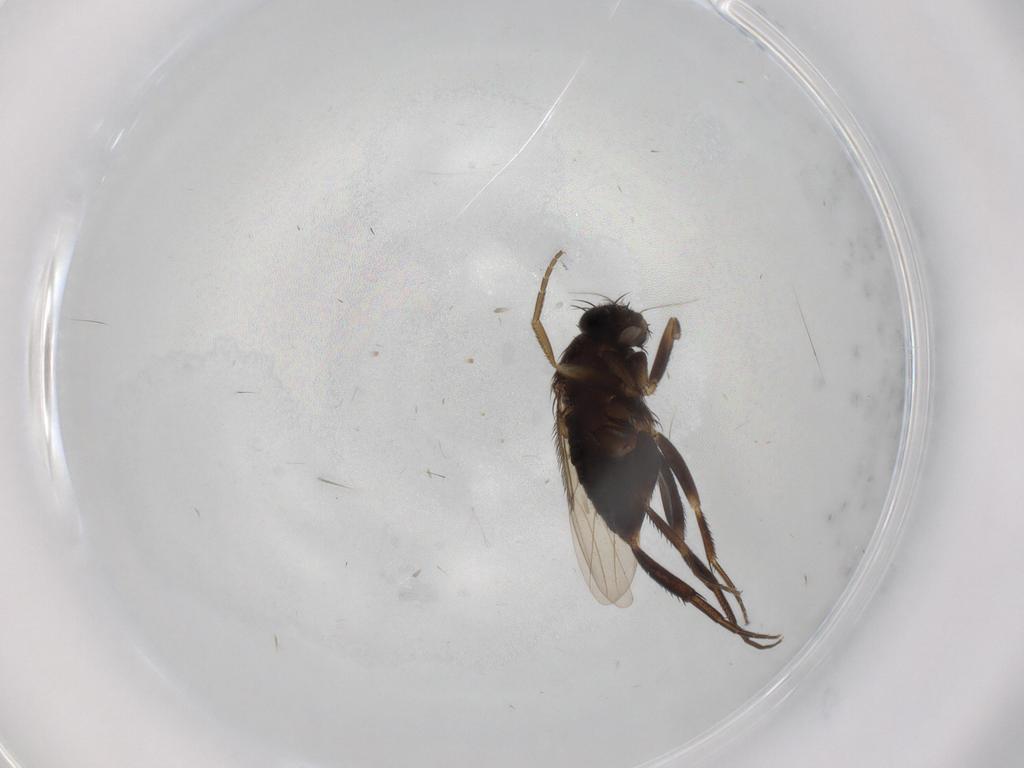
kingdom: Animalia
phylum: Arthropoda
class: Insecta
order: Diptera
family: Phoridae
